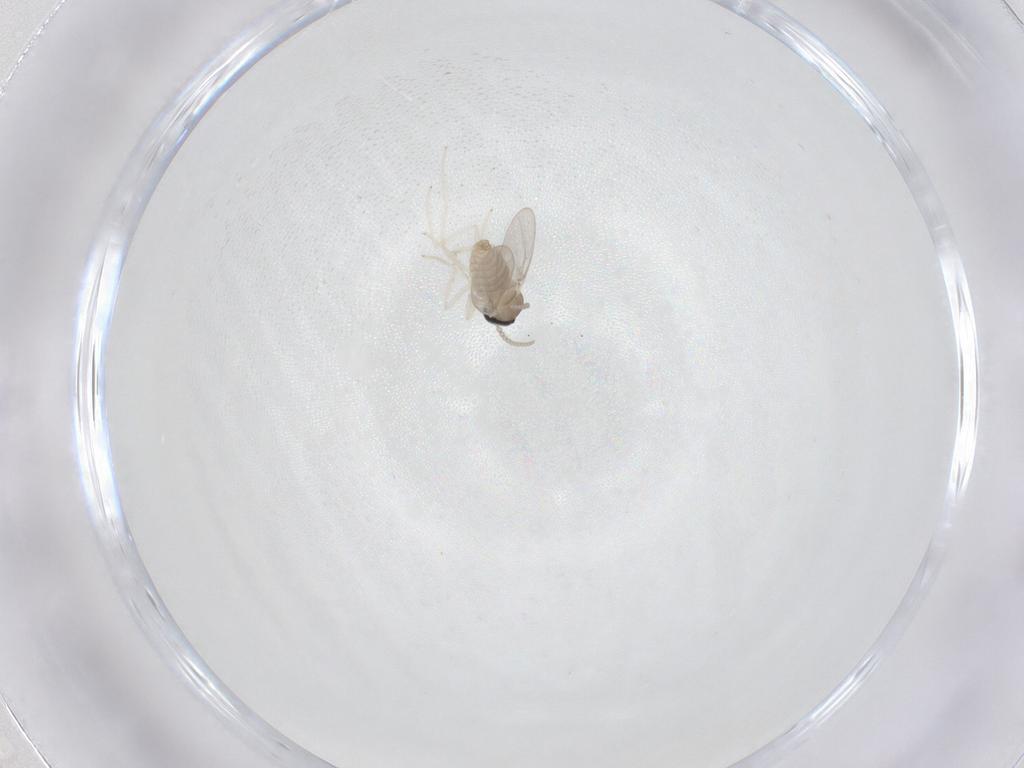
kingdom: Animalia
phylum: Arthropoda
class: Insecta
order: Diptera
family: Cecidomyiidae
